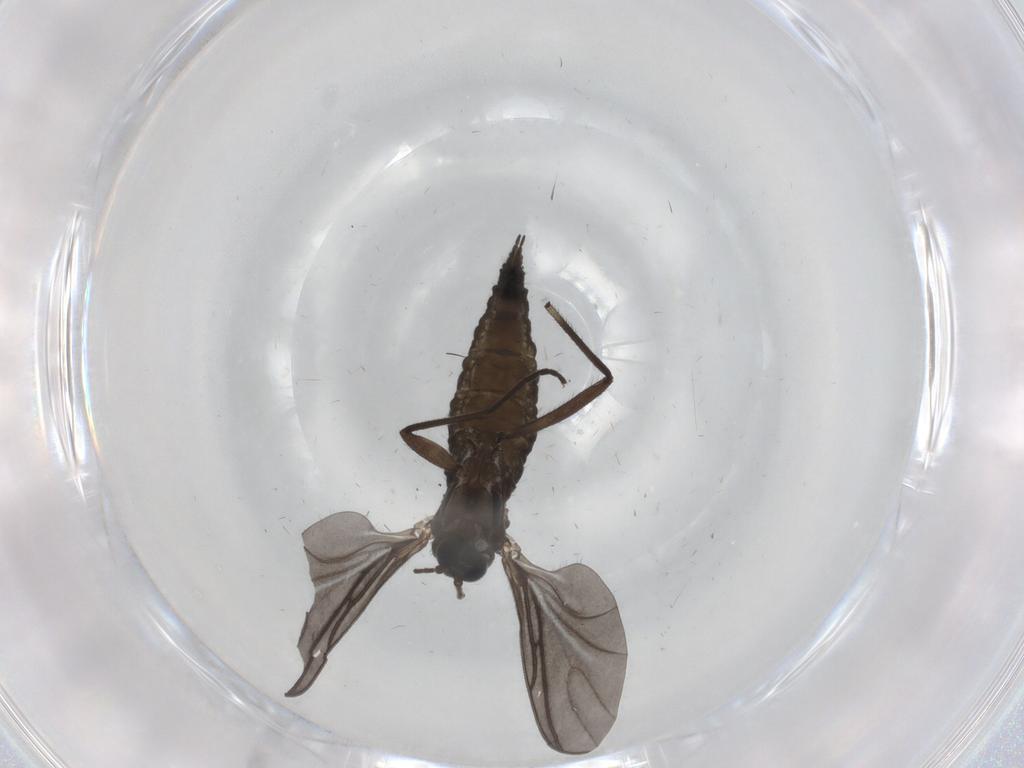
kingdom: Animalia
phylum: Arthropoda
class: Insecta
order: Diptera
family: Sciaridae
